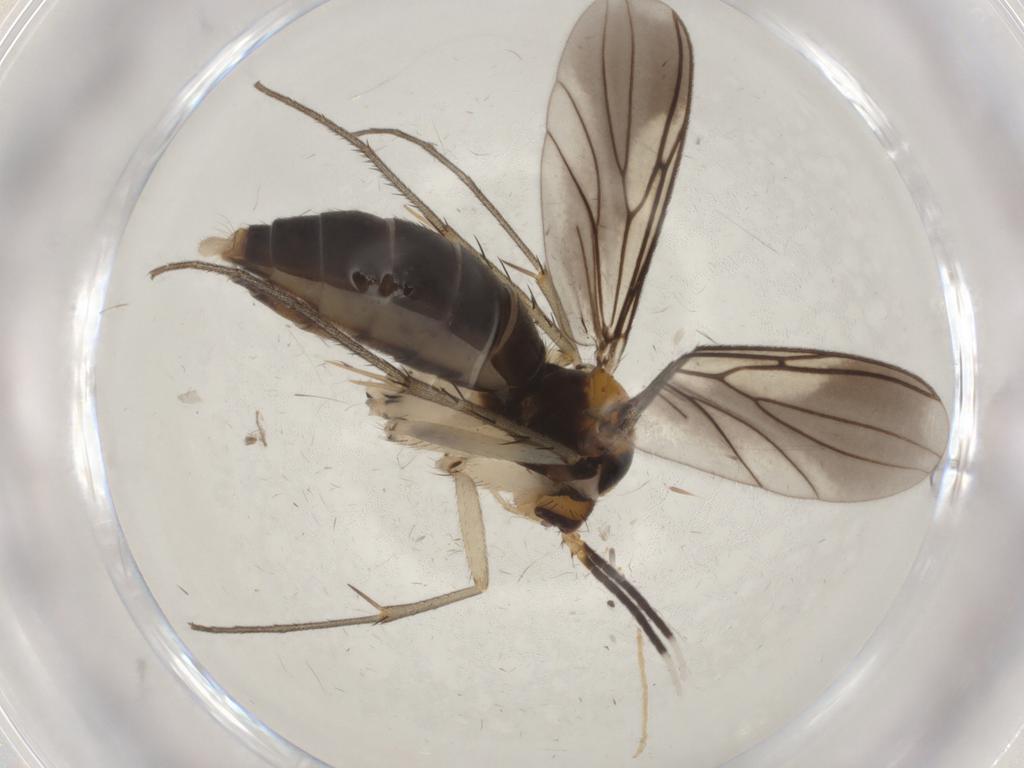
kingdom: Animalia
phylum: Arthropoda
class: Insecta
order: Diptera
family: Mycetophilidae
